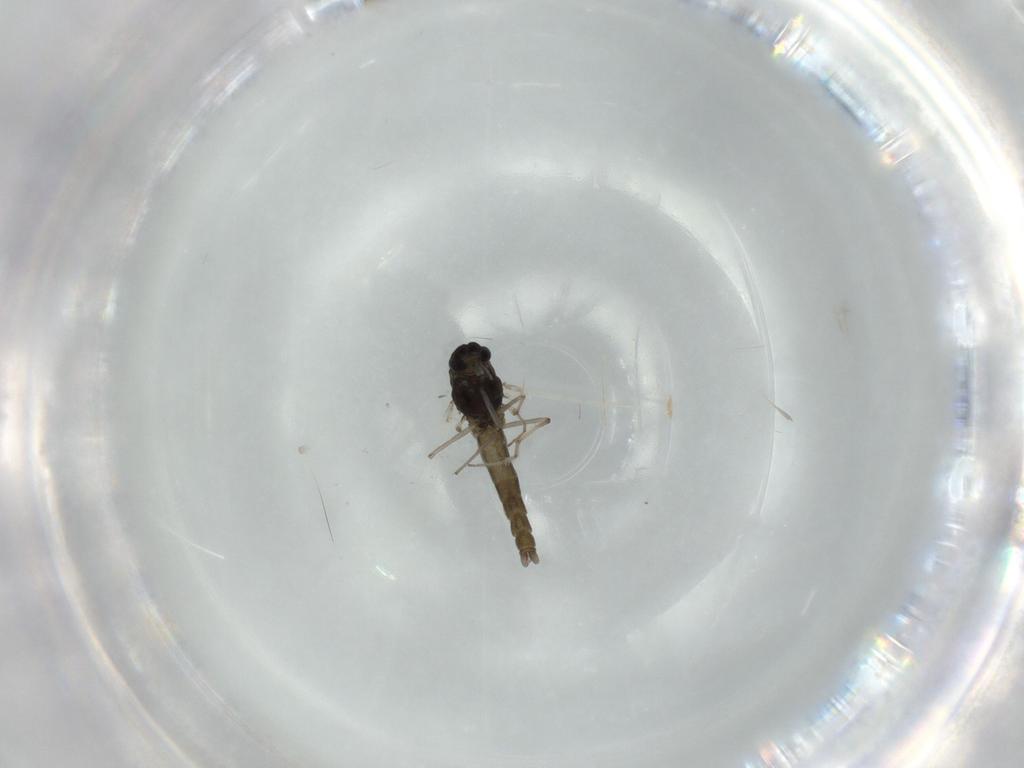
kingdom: Animalia
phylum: Arthropoda
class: Insecta
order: Diptera
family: Chironomidae
